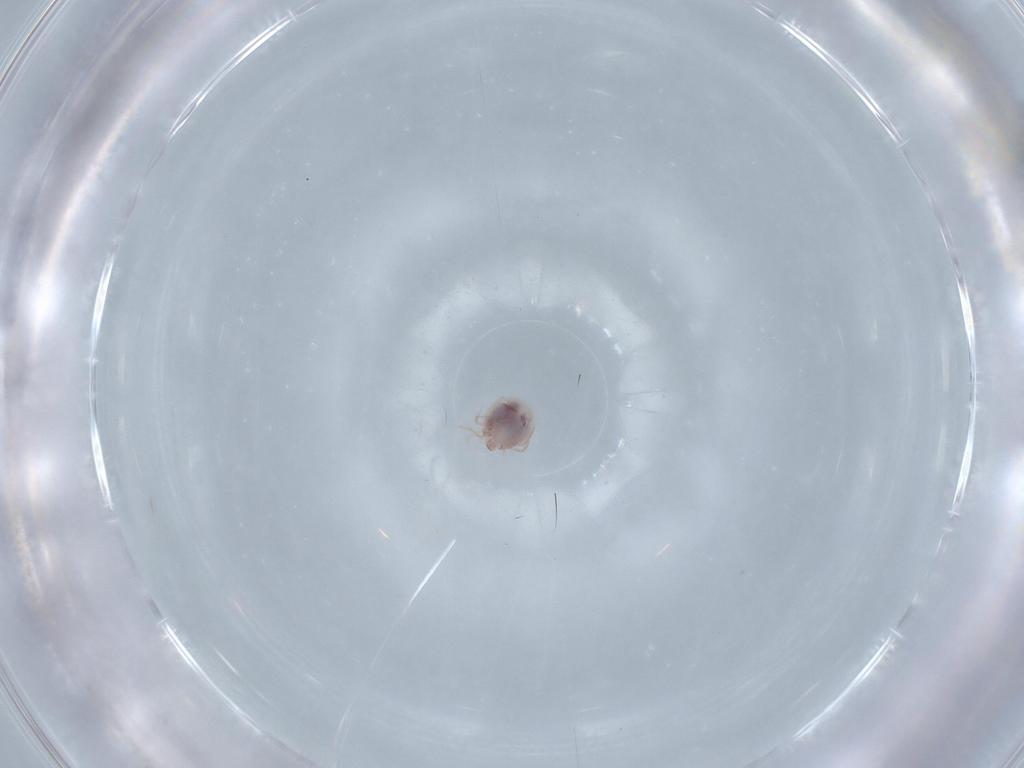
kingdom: Animalia
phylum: Arthropoda
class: Arachnida
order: Trombidiformes
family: Pionidae
